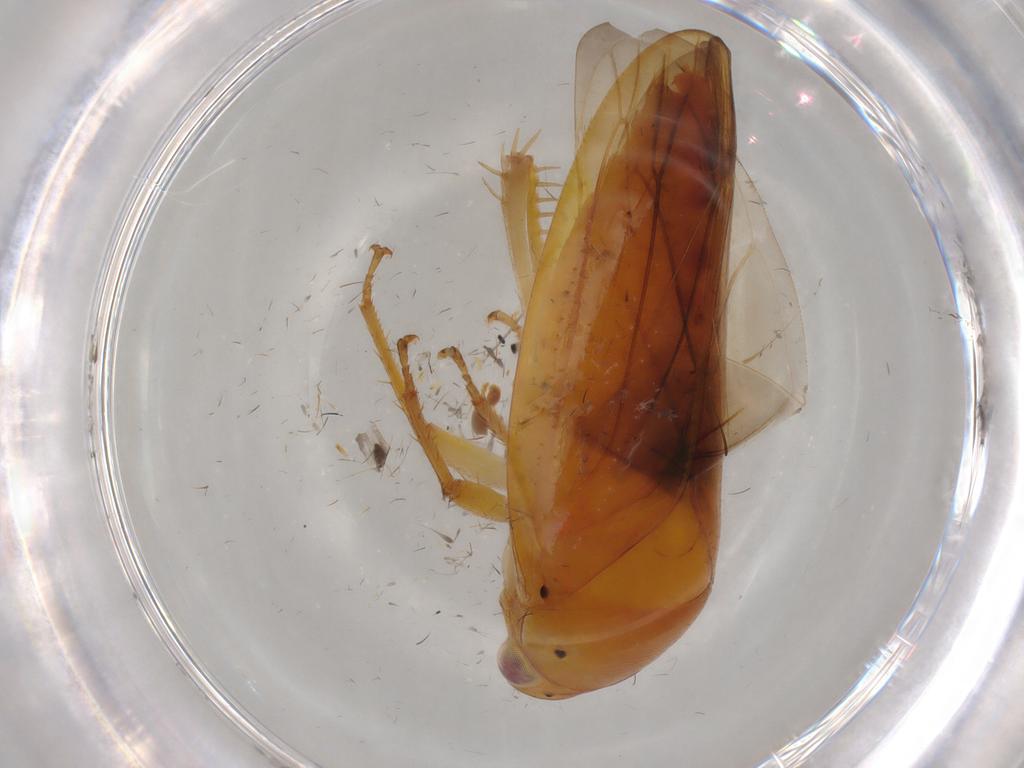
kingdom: Animalia
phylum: Arthropoda
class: Insecta
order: Hemiptera
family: Cicadellidae
